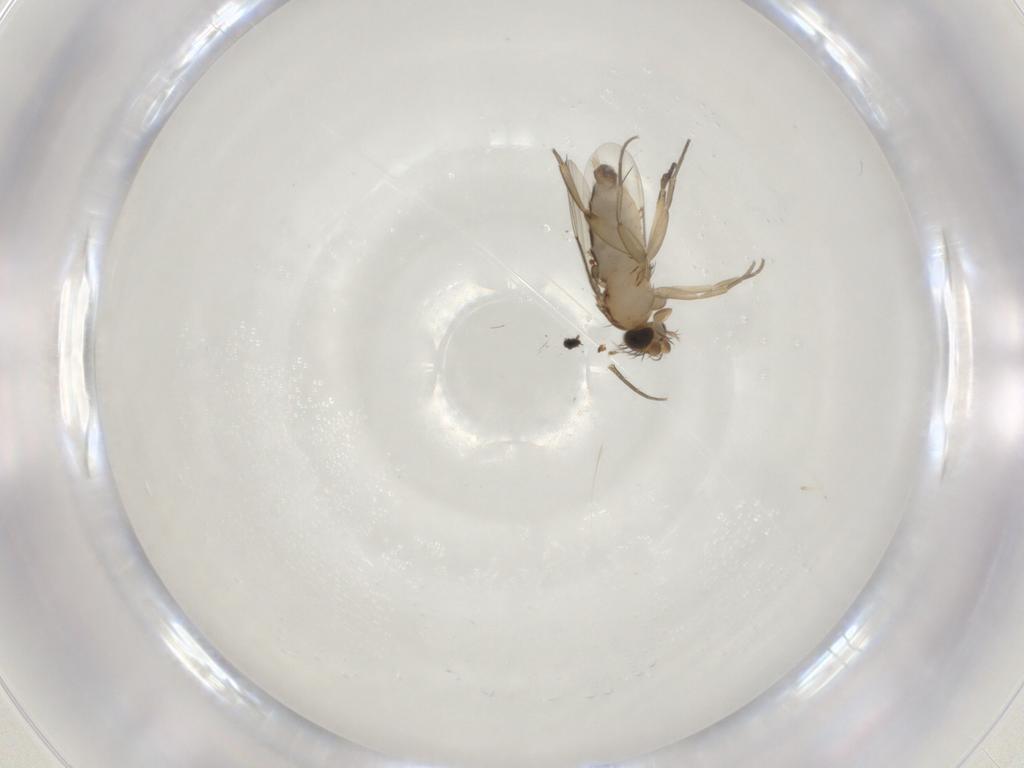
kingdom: Animalia
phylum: Arthropoda
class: Insecta
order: Diptera
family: Phoridae
